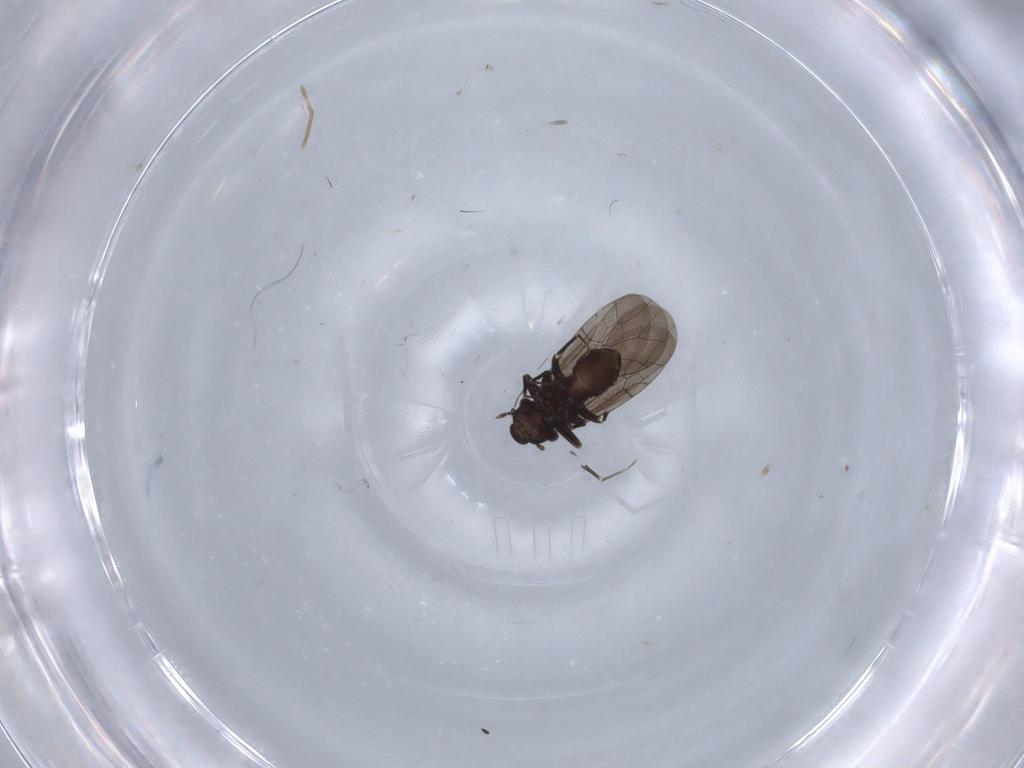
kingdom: Animalia
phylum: Arthropoda
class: Insecta
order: Psocodea
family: Lepidopsocidae
